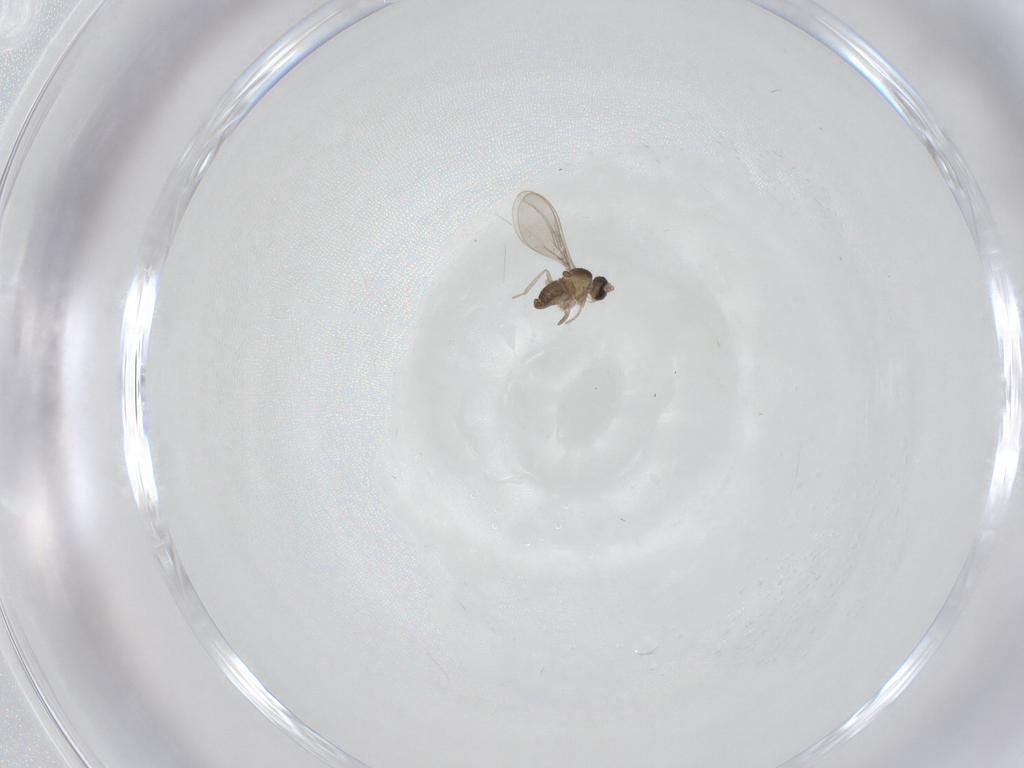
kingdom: Animalia
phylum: Arthropoda
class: Insecta
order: Diptera
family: Cecidomyiidae
